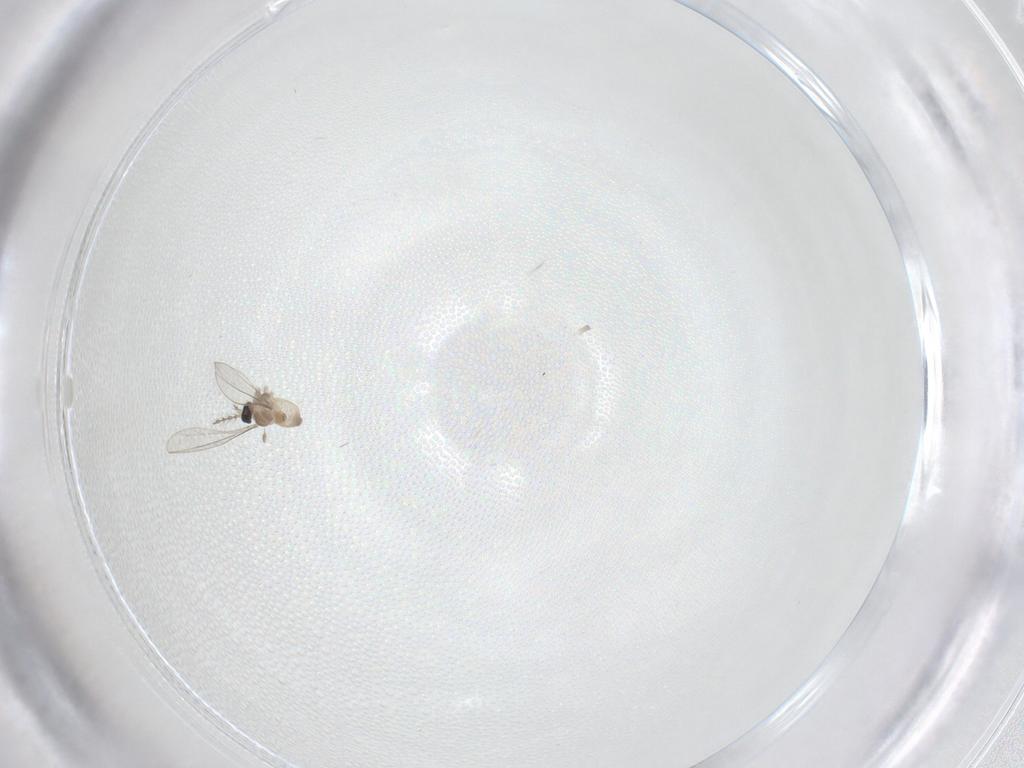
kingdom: Animalia
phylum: Arthropoda
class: Insecta
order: Diptera
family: Cecidomyiidae
